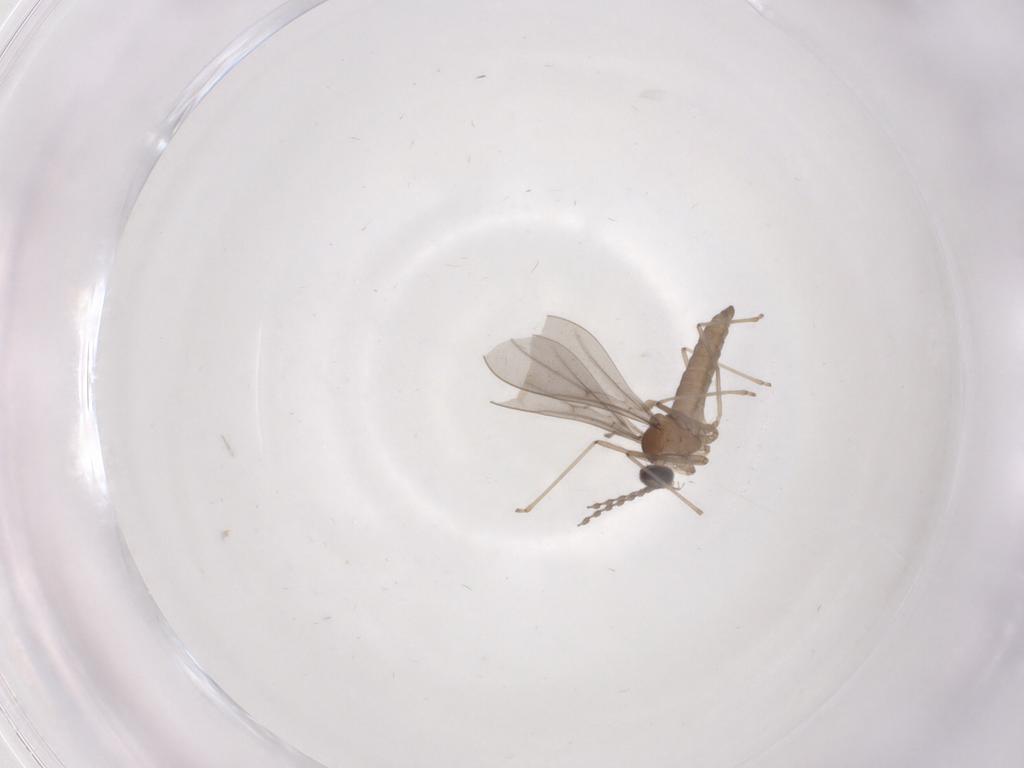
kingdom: Animalia
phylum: Arthropoda
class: Insecta
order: Diptera
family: Cecidomyiidae
